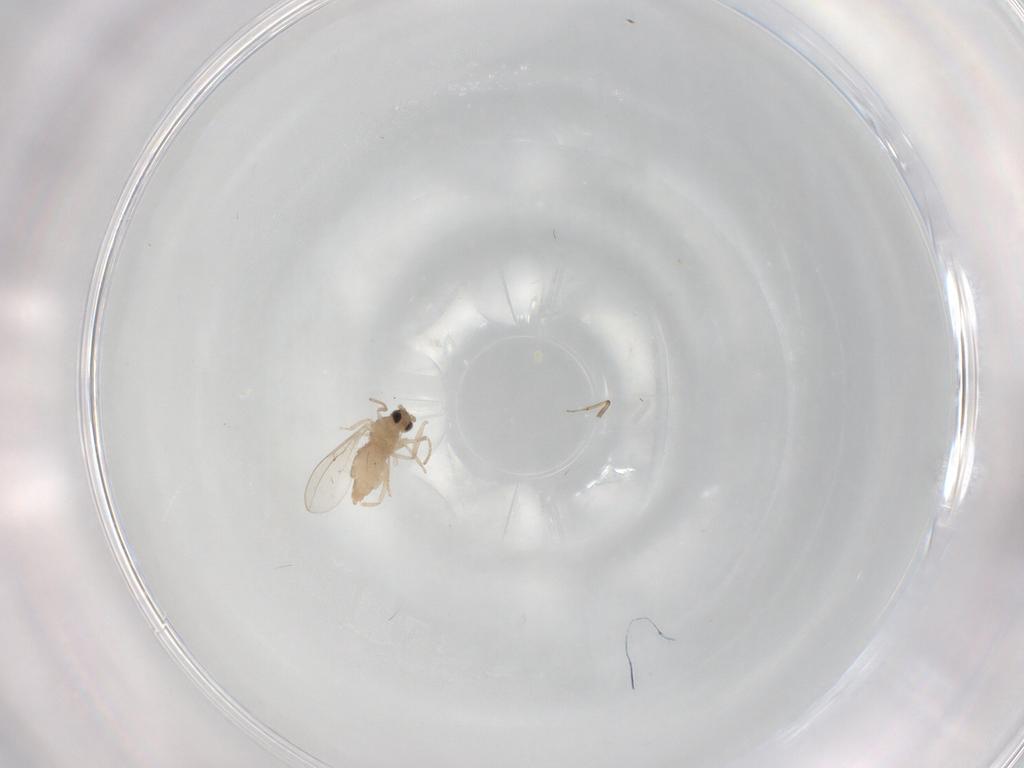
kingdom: Animalia
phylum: Arthropoda
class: Insecta
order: Diptera
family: Cecidomyiidae
